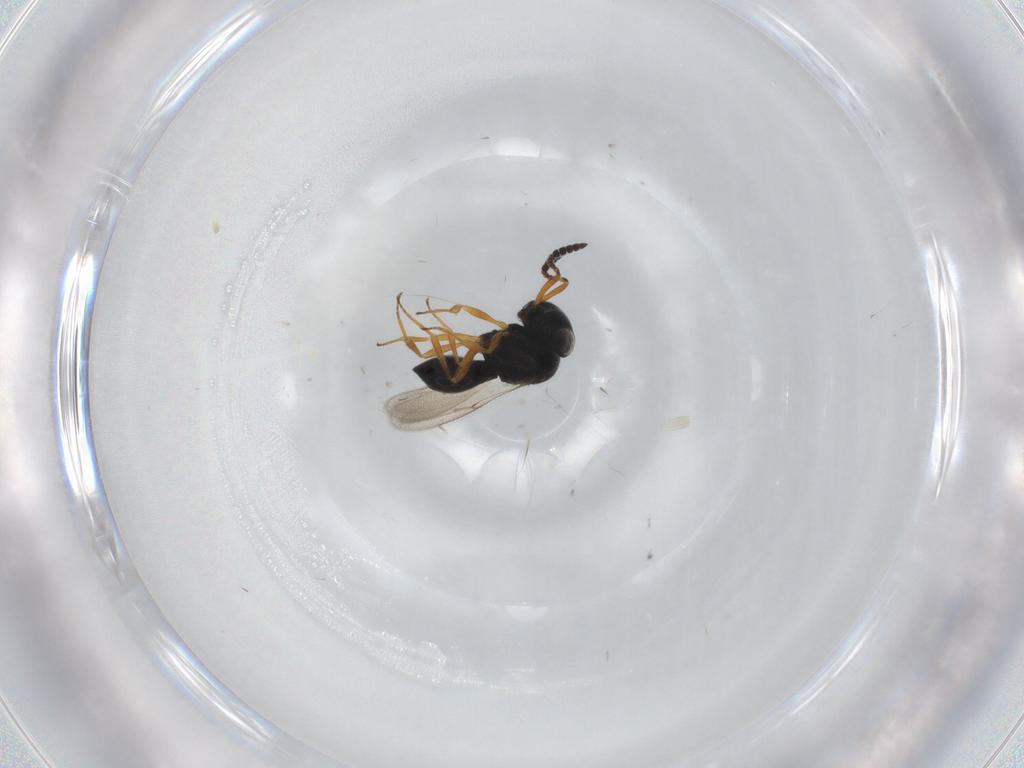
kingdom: Animalia
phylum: Arthropoda
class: Insecta
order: Hymenoptera
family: Scelionidae
